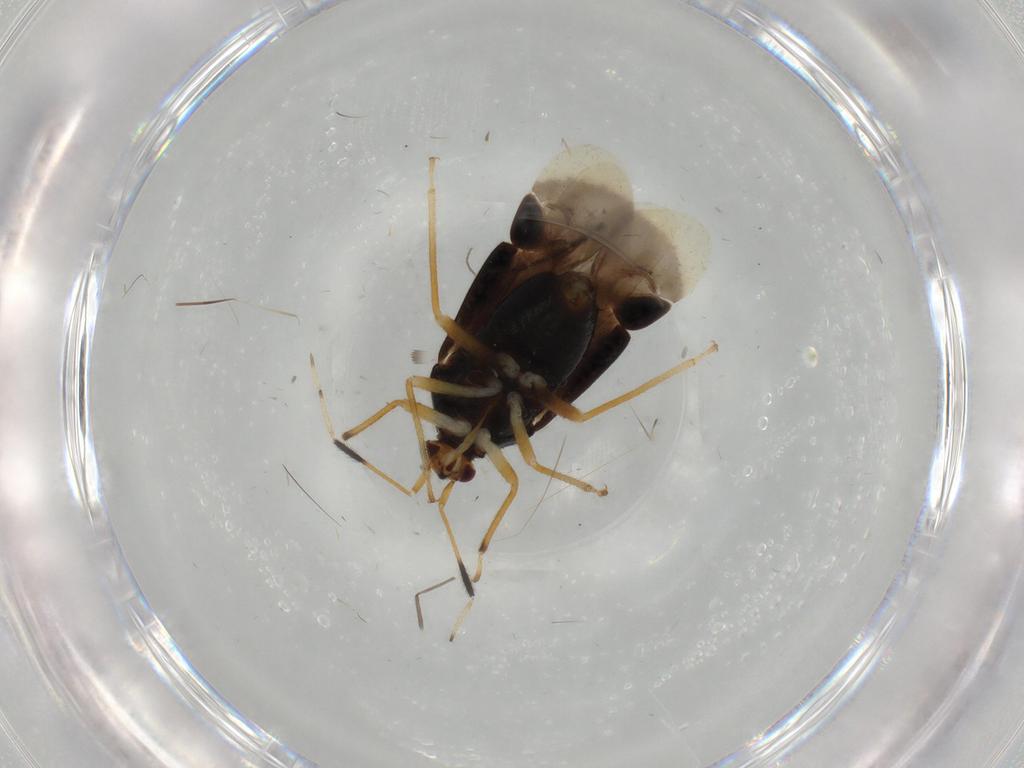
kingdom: Animalia
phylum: Arthropoda
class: Insecta
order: Hemiptera
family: Miridae
